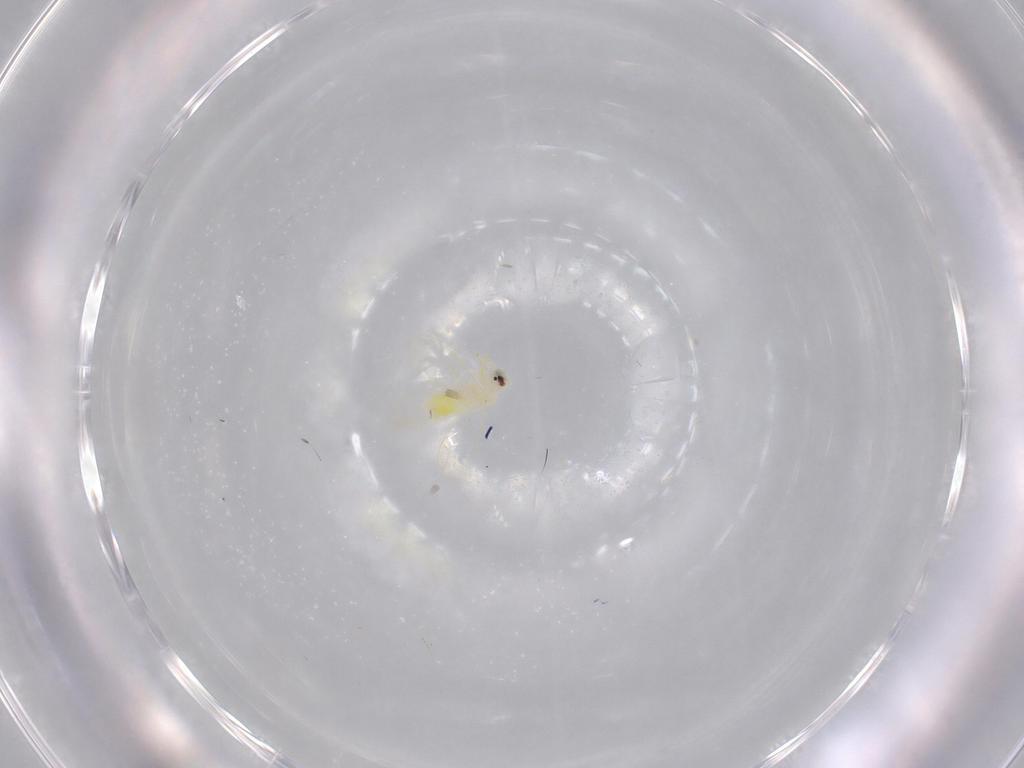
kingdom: Animalia
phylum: Arthropoda
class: Insecta
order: Hemiptera
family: Aleyrodidae
